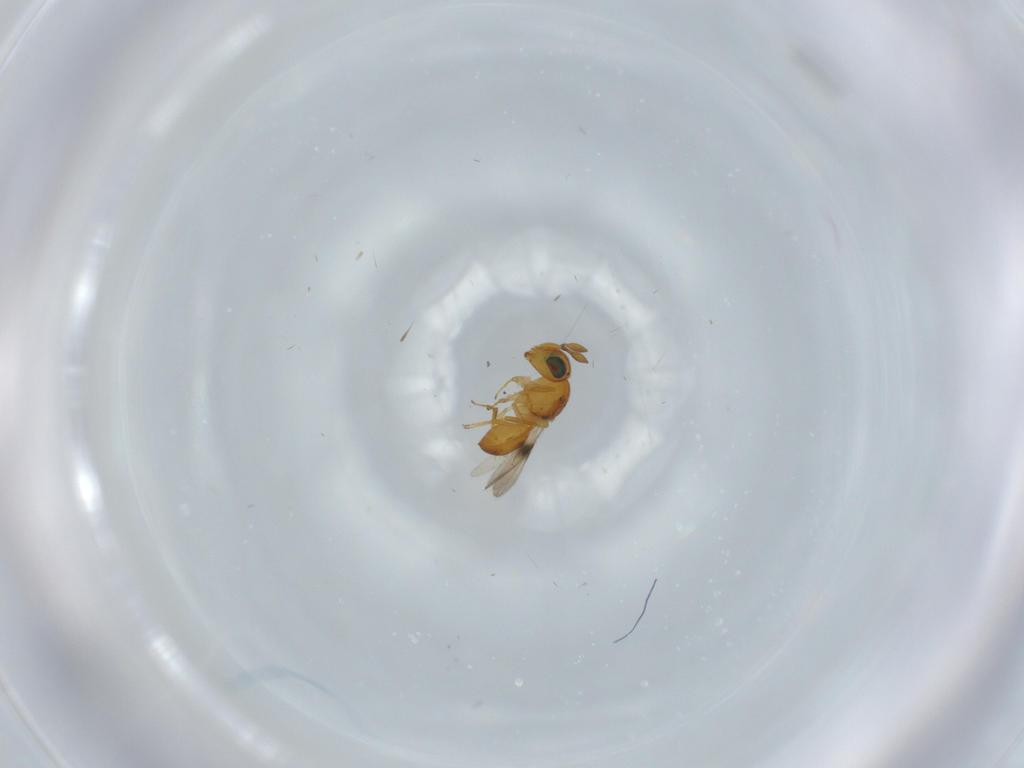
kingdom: Animalia
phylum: Arthropoda
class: Insecta
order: Hymenoptera
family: Scelionidae
